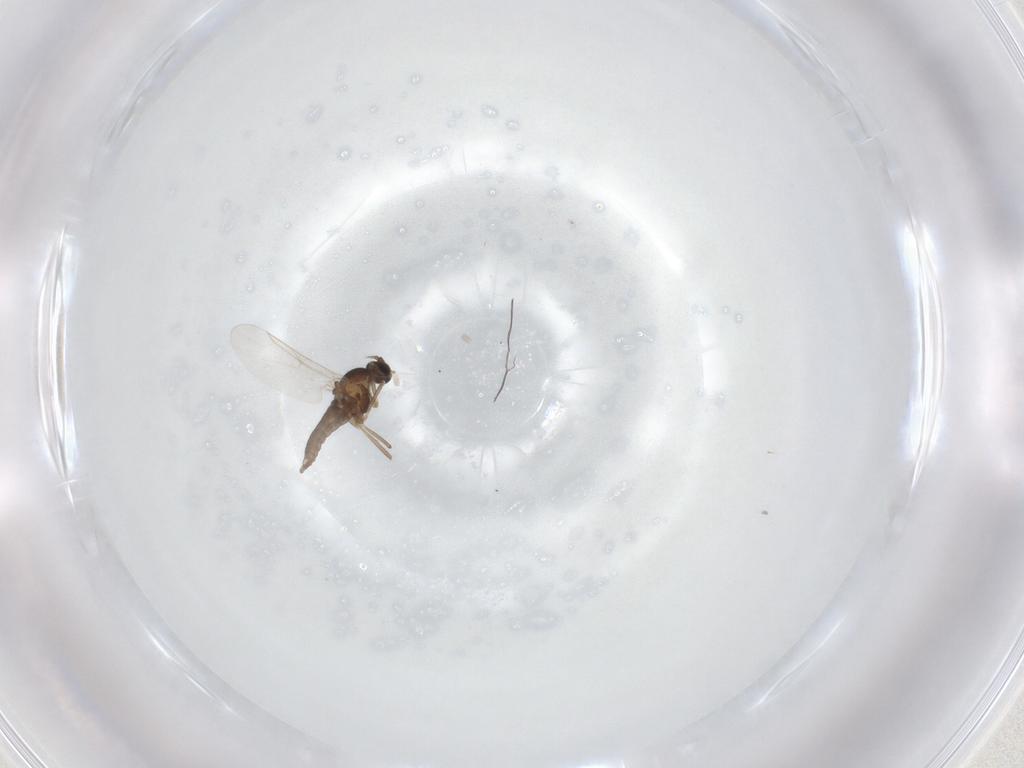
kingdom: Animalia
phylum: Arthropoda
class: Insecta
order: Diptera
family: Cecidomyiidae
